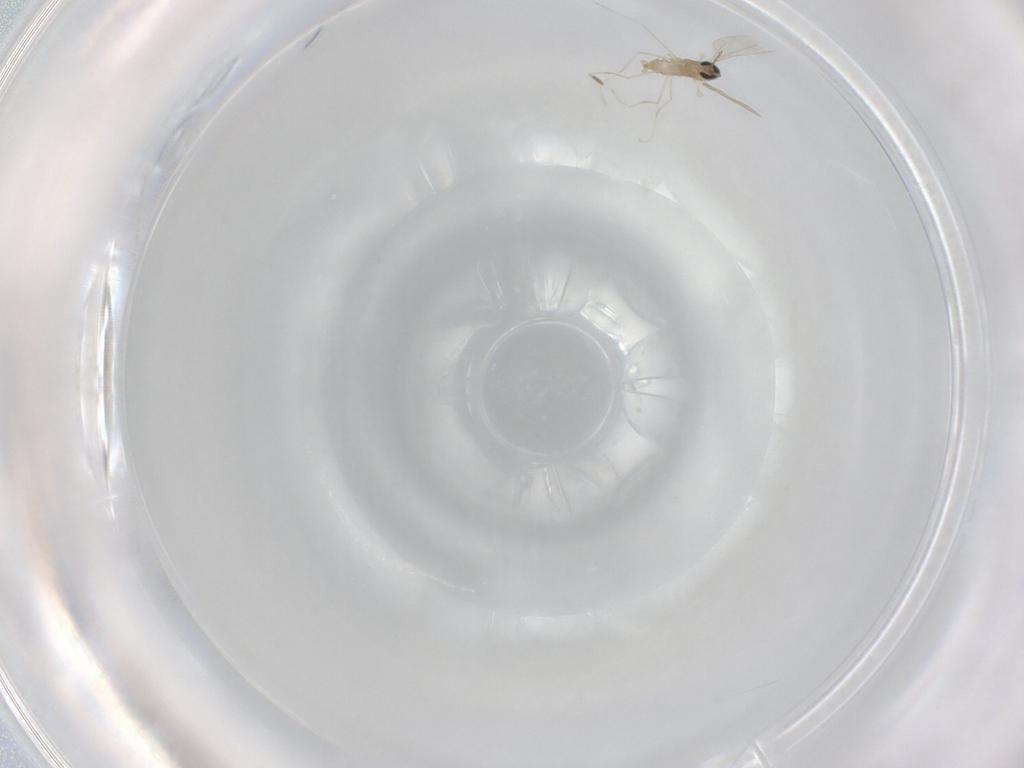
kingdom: Animalia
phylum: Arthropoda
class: Insecta
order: Diptera
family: Cecidomyiidae
